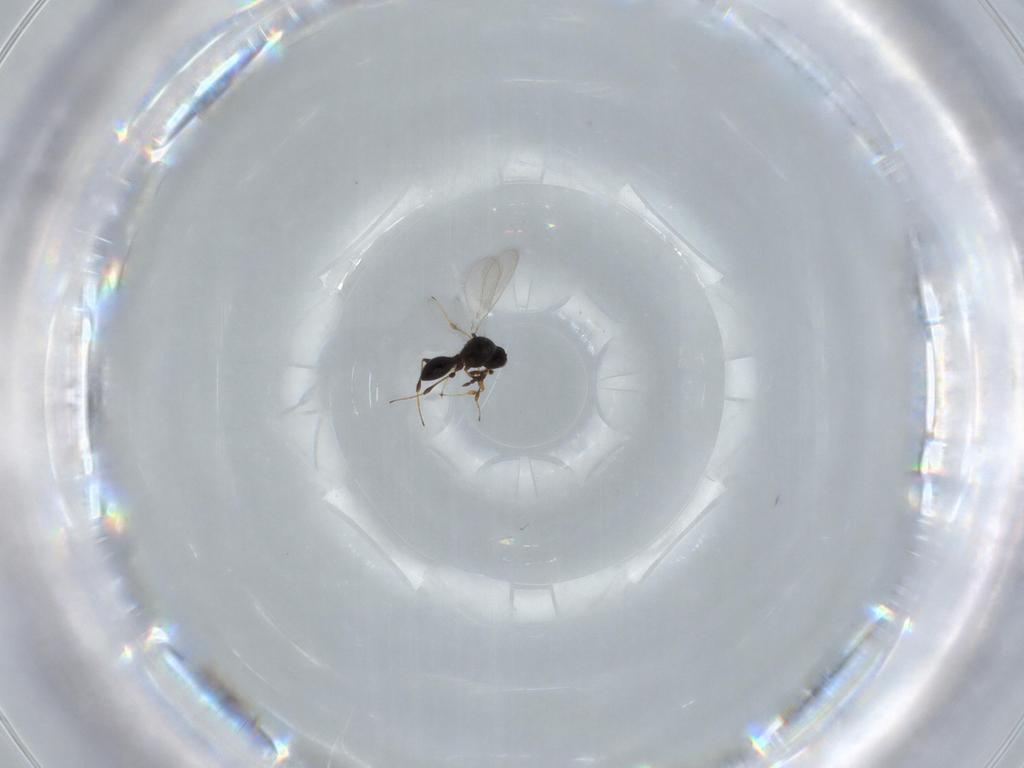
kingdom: Animalia
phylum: Arthropoda
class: Insecta
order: Hymenoptera
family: Platygastridae
